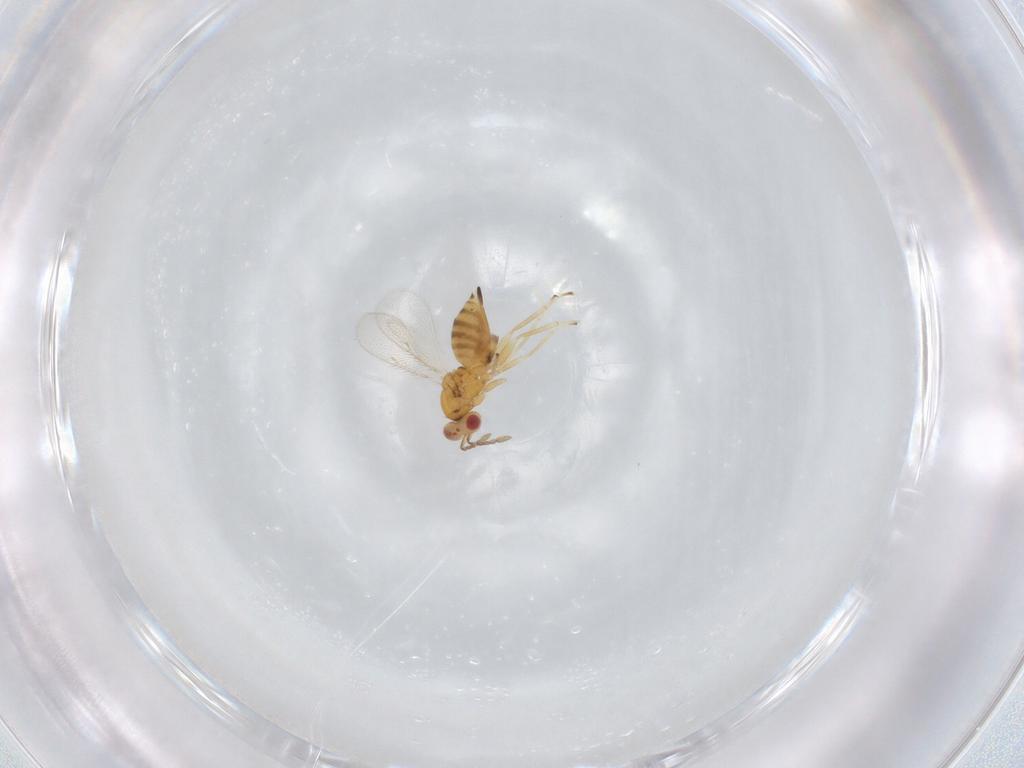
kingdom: Animalia
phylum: Arthropoda
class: Insecta
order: Hymenoptera
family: Eulophidae
